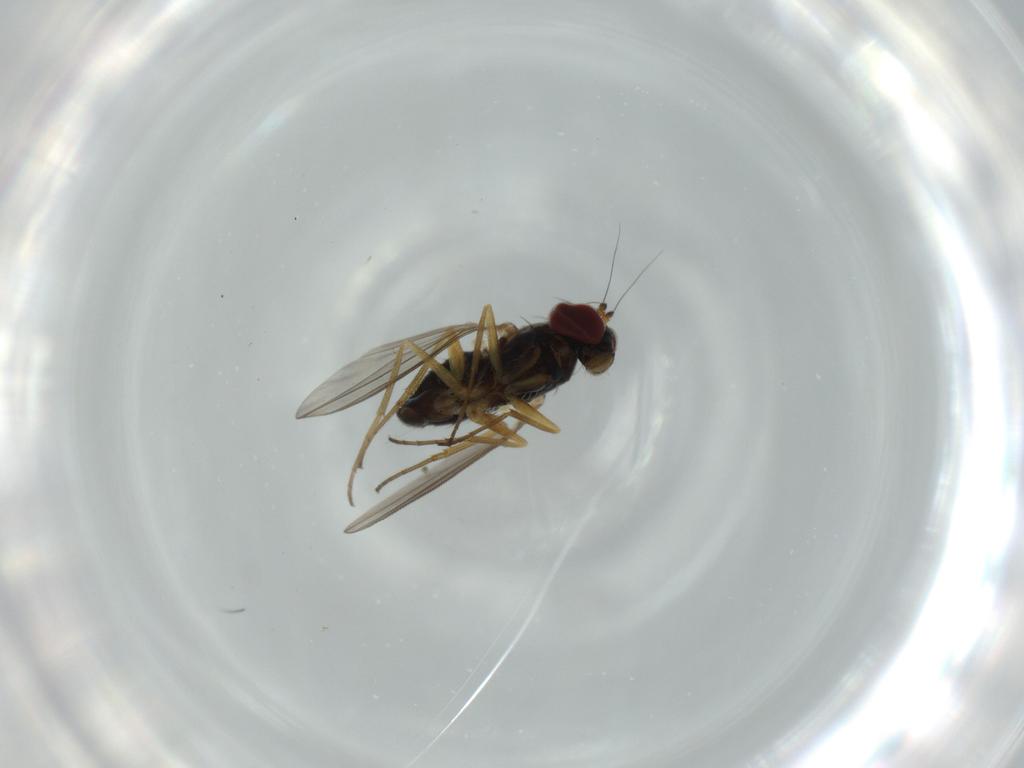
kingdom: Animalia
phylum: Arthropoda
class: Insecta
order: Diptera
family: Dolichopodidae
